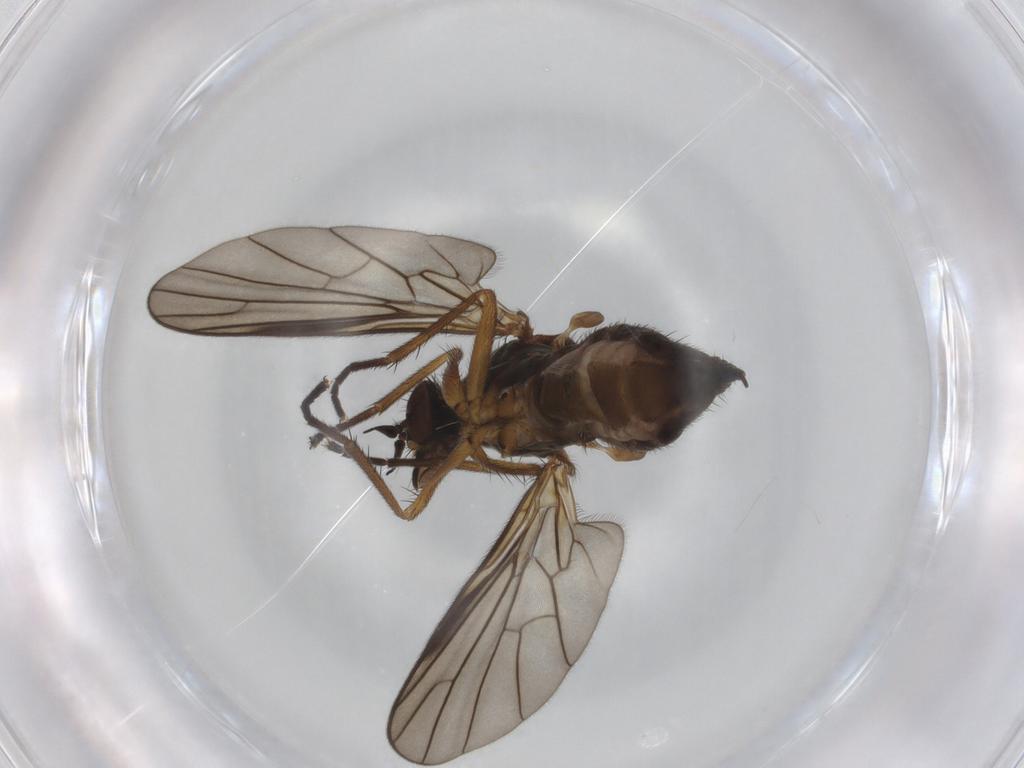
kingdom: Animalia
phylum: Arthropoda
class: Insecta
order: Diptera
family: Empididae
